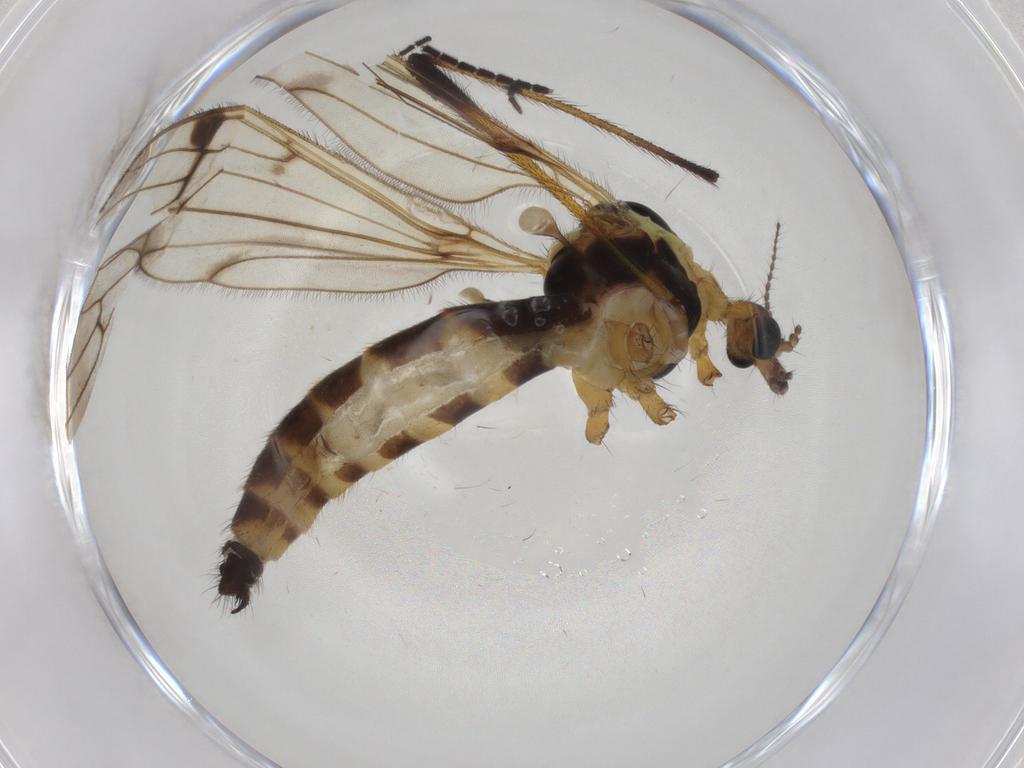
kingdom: Animalia
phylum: Arthropoda
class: Insecta
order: Diptera
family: Limoniidae
